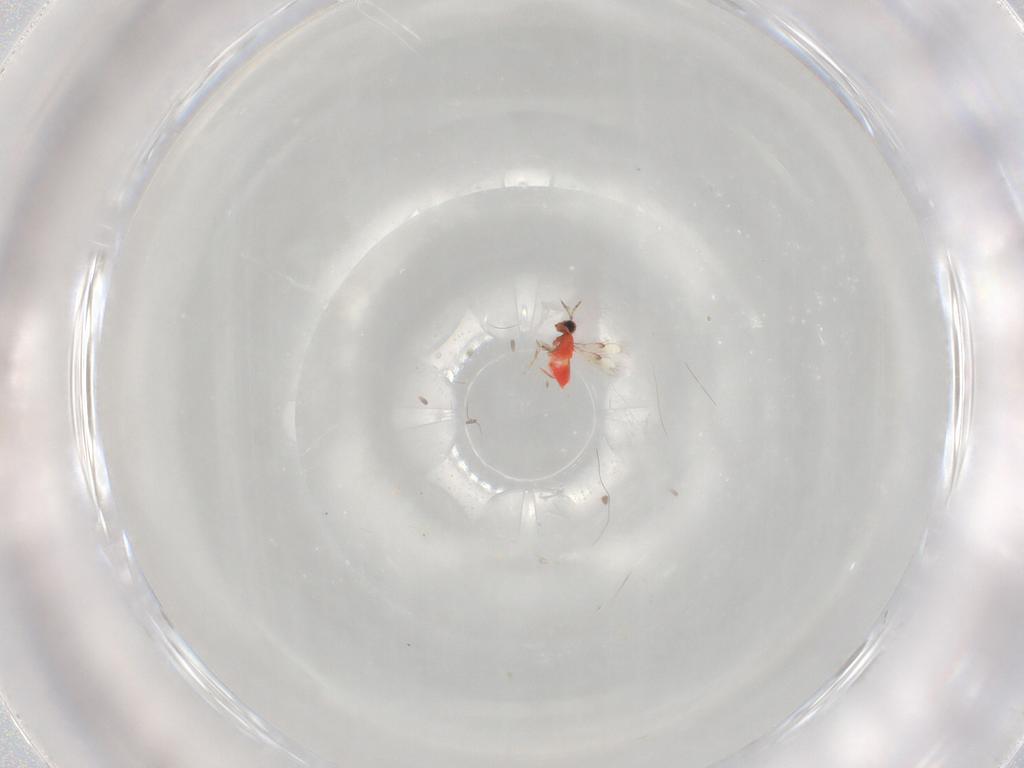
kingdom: Animalia
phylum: Arthropoda
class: Insecta
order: Hymenoptera
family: Trichogrammatidae
